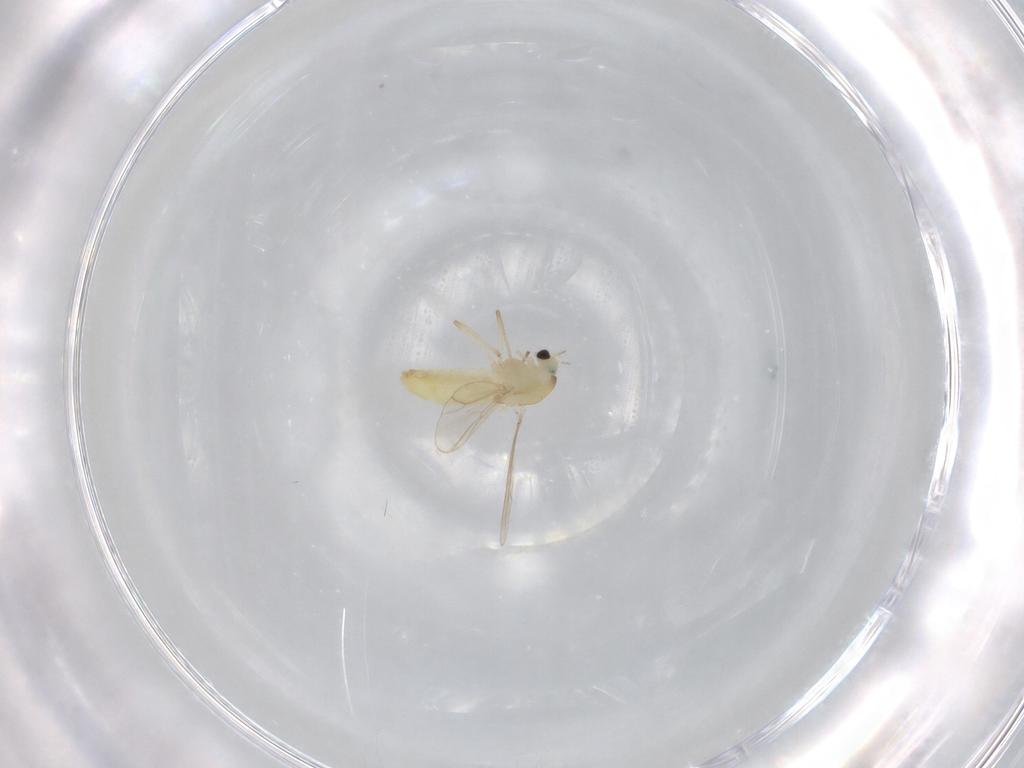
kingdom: Animalia
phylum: Arthropoda
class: Insecta
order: Diptera
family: Chironomidae
